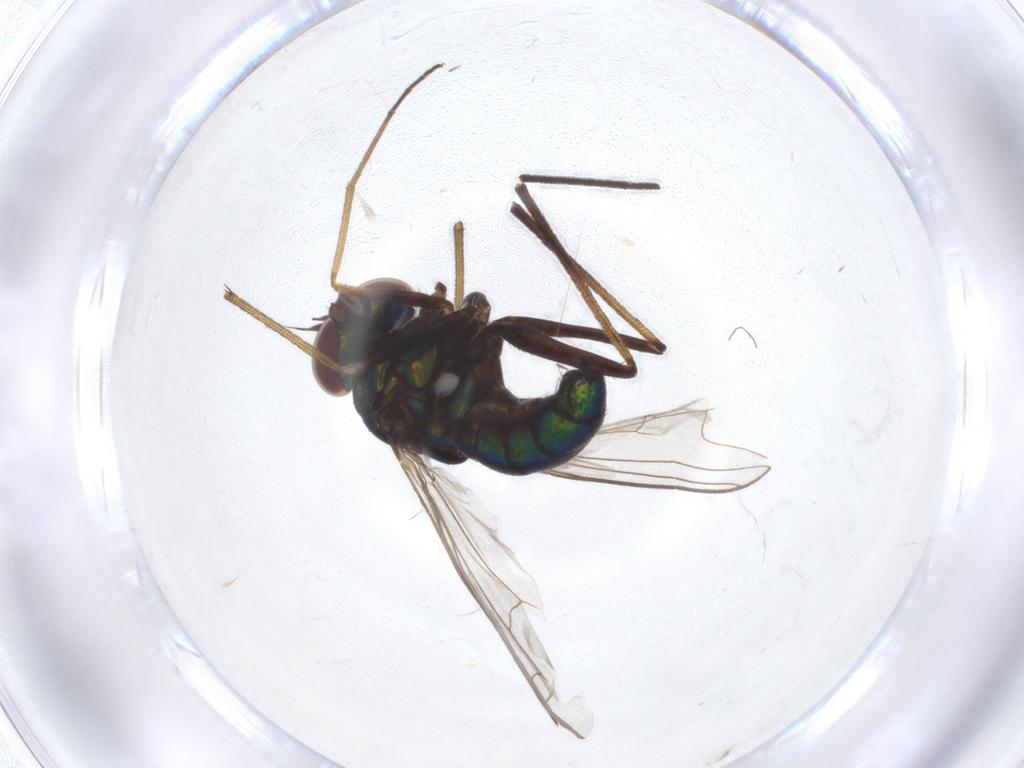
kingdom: Animalia
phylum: Arthropoda
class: Insecta
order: Diptera
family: Dolichopodidae
